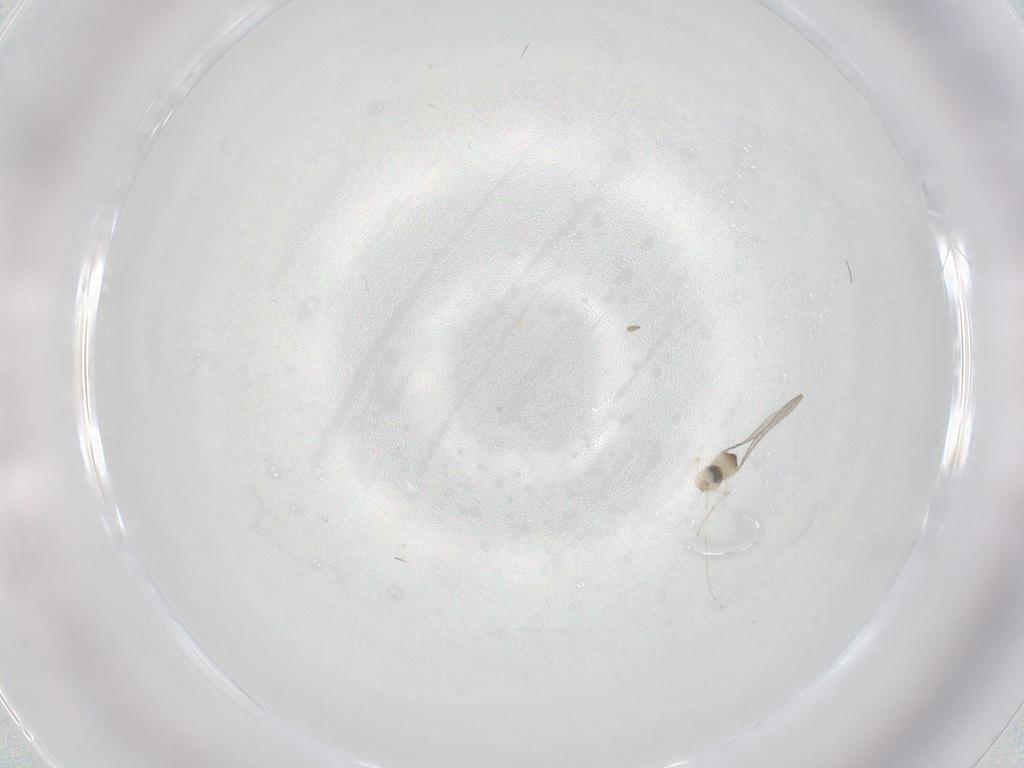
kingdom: Animalia
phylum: Arthropoda
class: Insecta
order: Diptera
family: Cecidomyiidae
